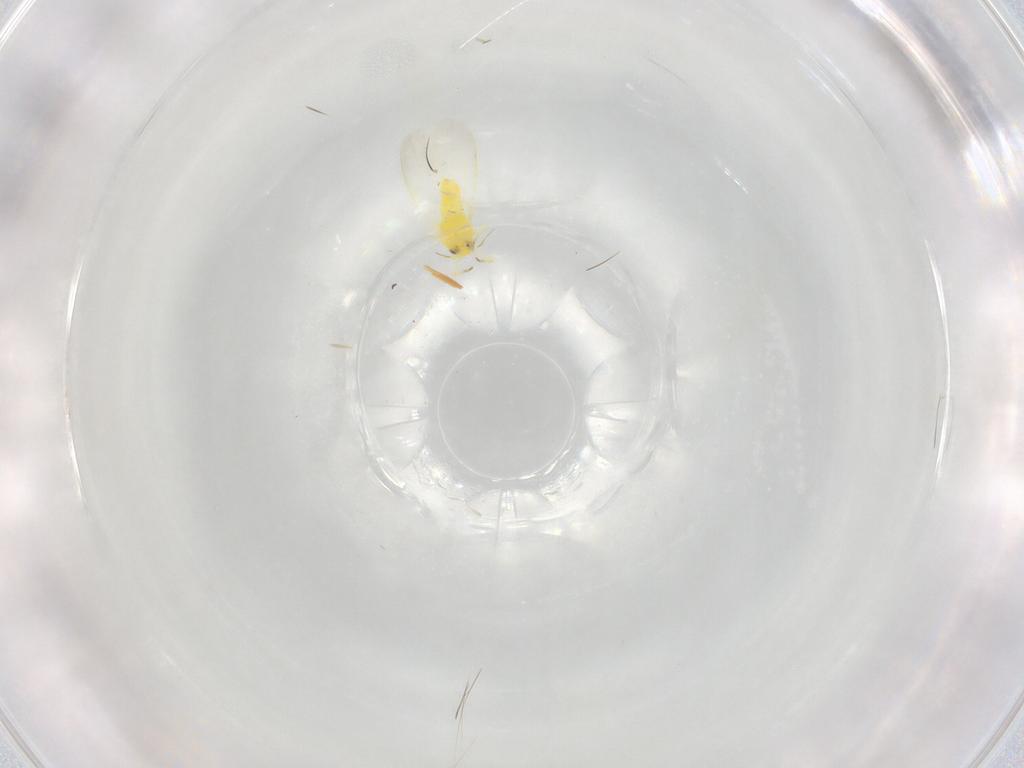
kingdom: Animalia
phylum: Arthropoda
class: Insecta
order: Hemiptera
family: Aleyrodidae
